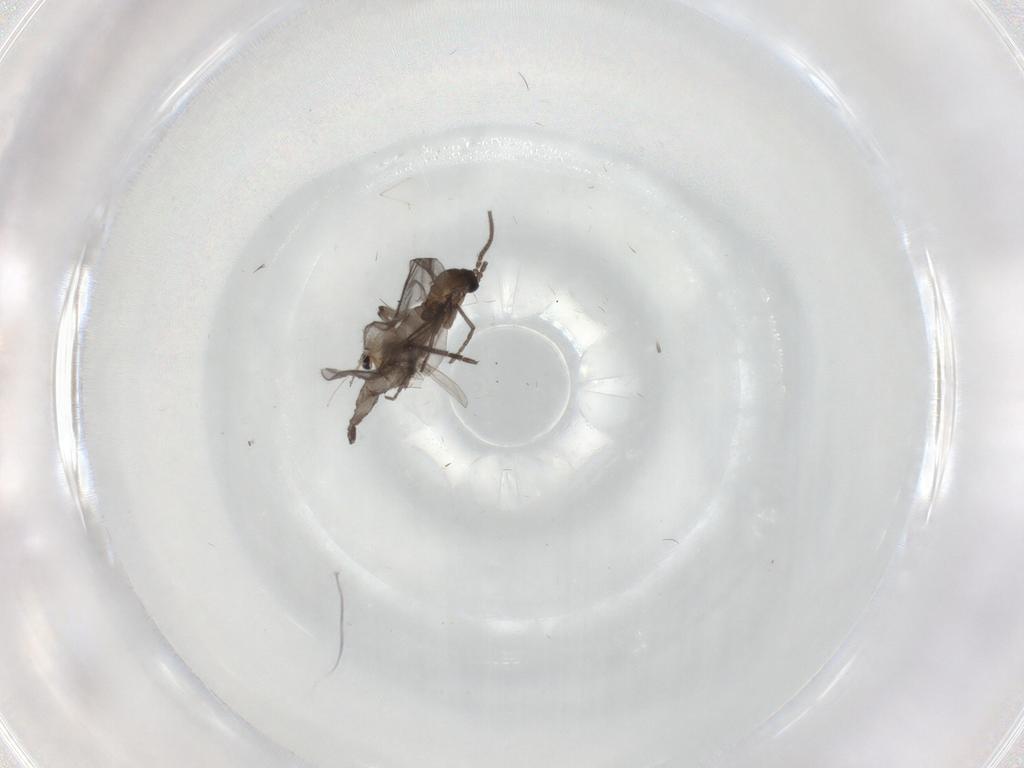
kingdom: Animalia
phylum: Arthropoda
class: Insecta
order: Diptera
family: Sciaridae
